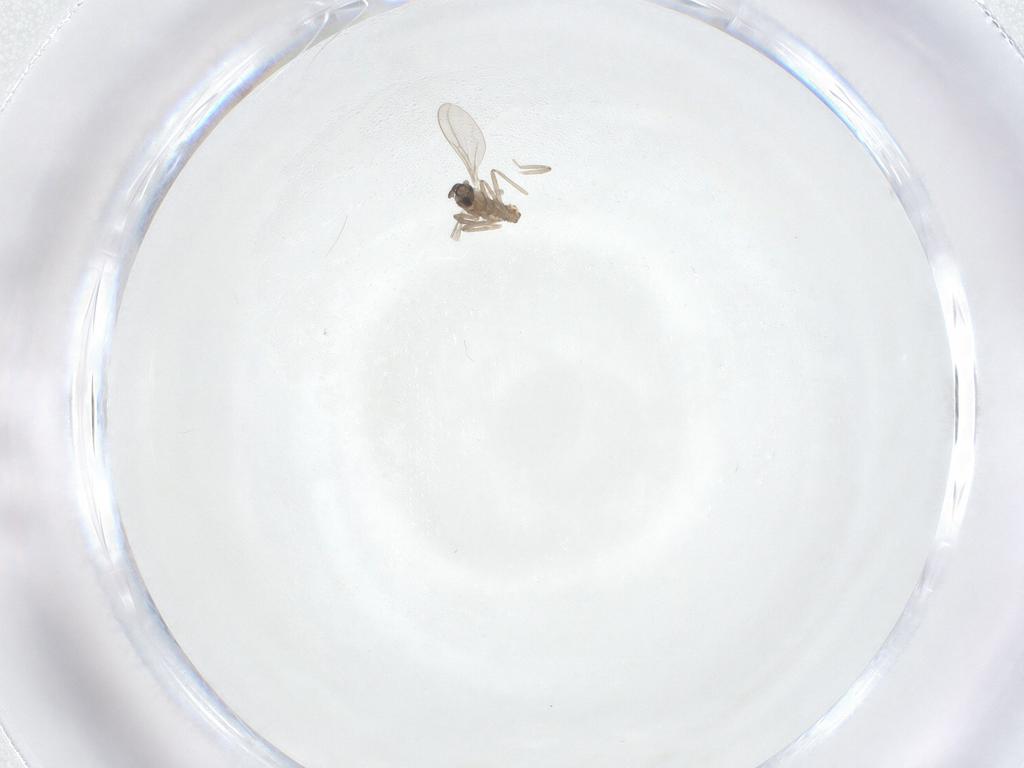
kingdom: Animalia
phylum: Arthropoda
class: Insecta
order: Diptera
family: Cecidomyiidae
